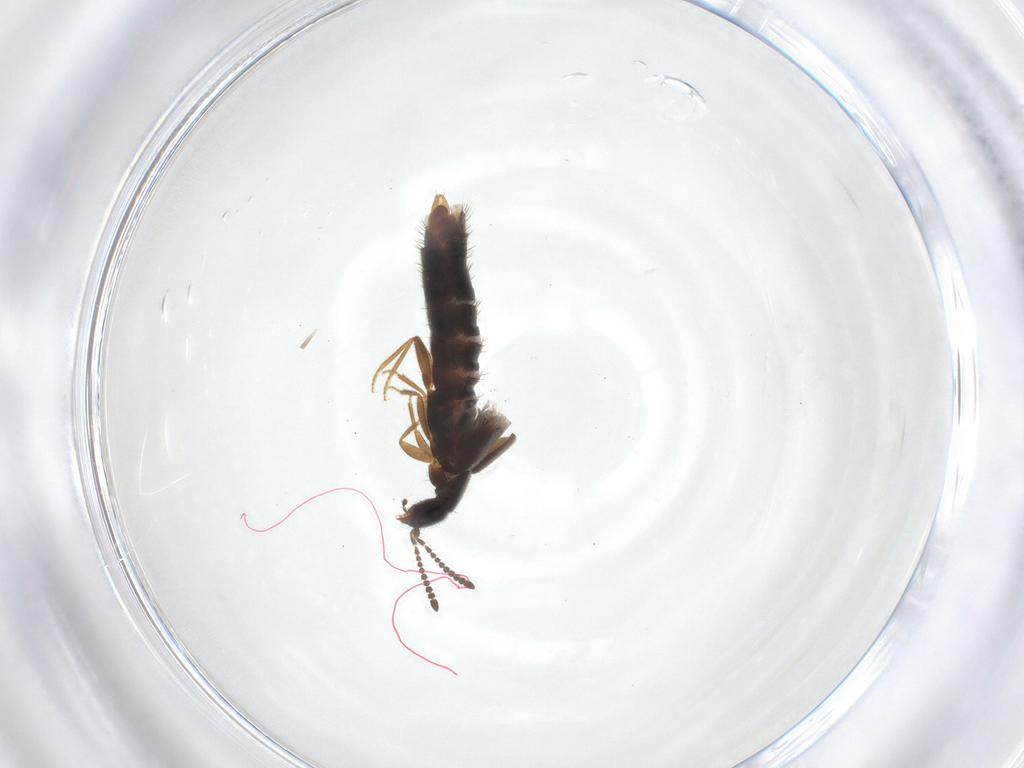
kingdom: Animalia
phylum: Arthropoda
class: Insecta
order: Coleoptera
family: Staphylinidae
